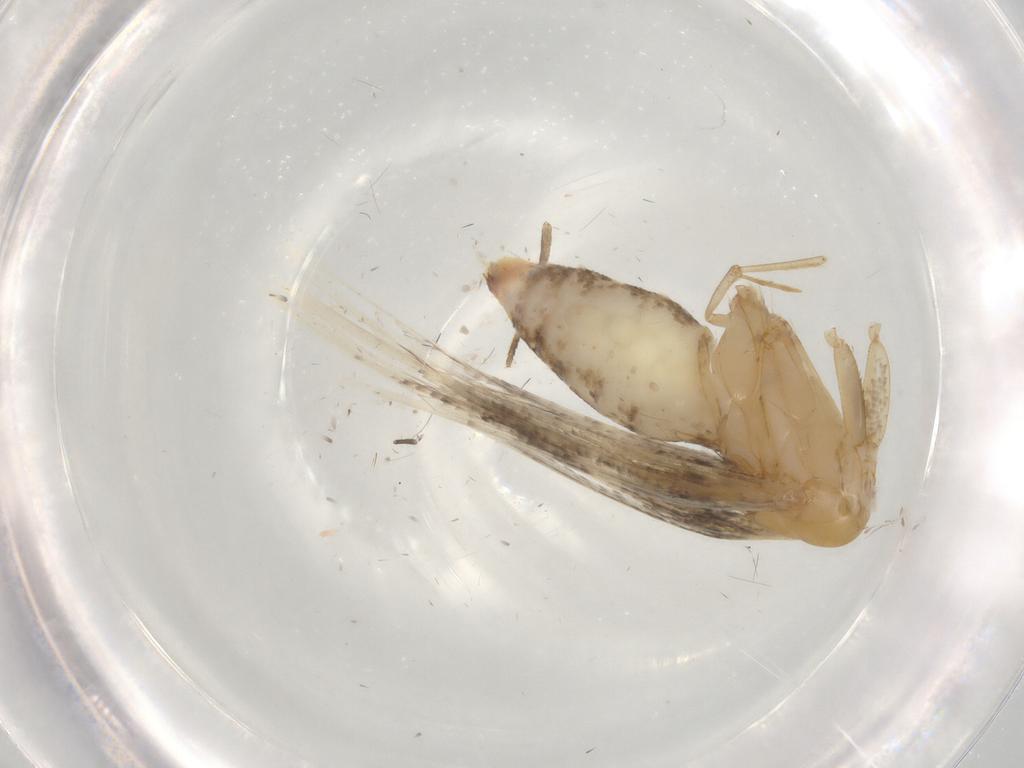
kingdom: Animalia
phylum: Arthropoda
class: Insecta
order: Lepidoptera
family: Alucitidae
